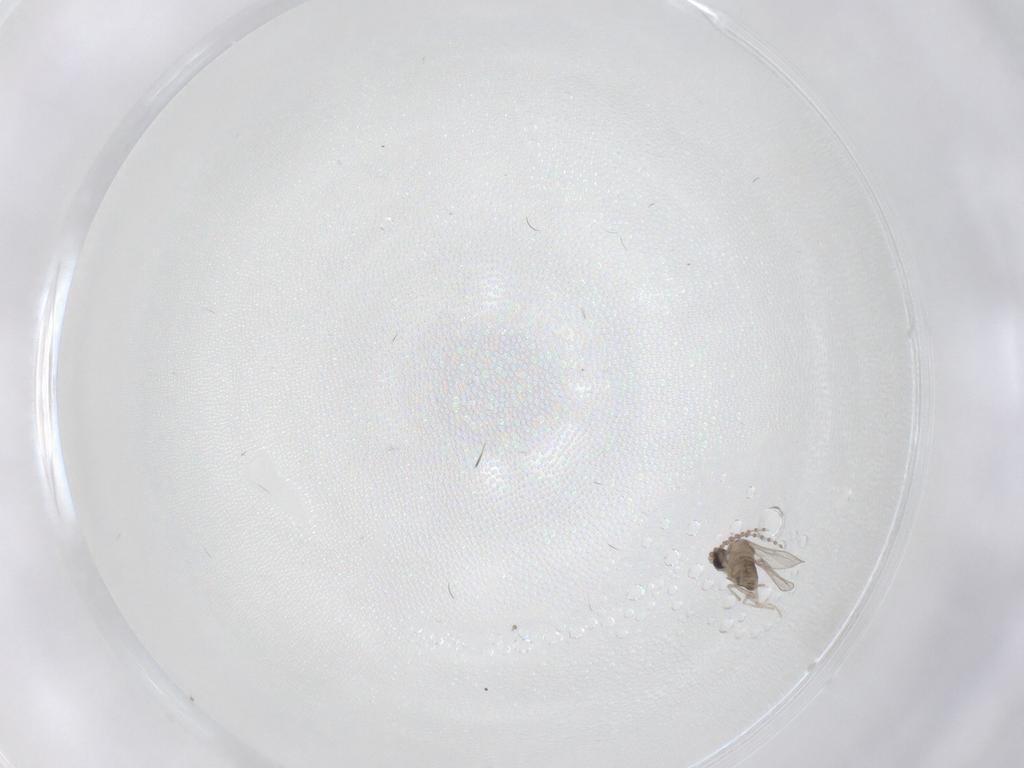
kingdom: Animalia
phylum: Arthropoda
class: Insecta
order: Diptera
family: Cecidomyiidae
